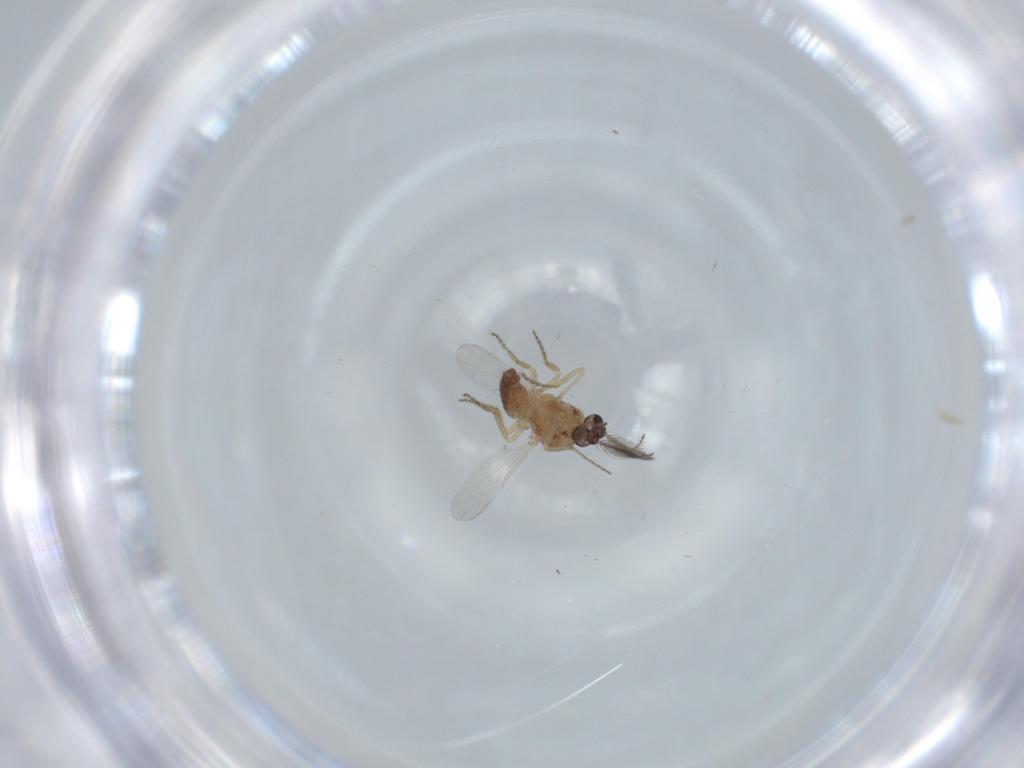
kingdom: Animalia
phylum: Arthropoda
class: Insecta
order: Diptera
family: Ceratopogonidae
